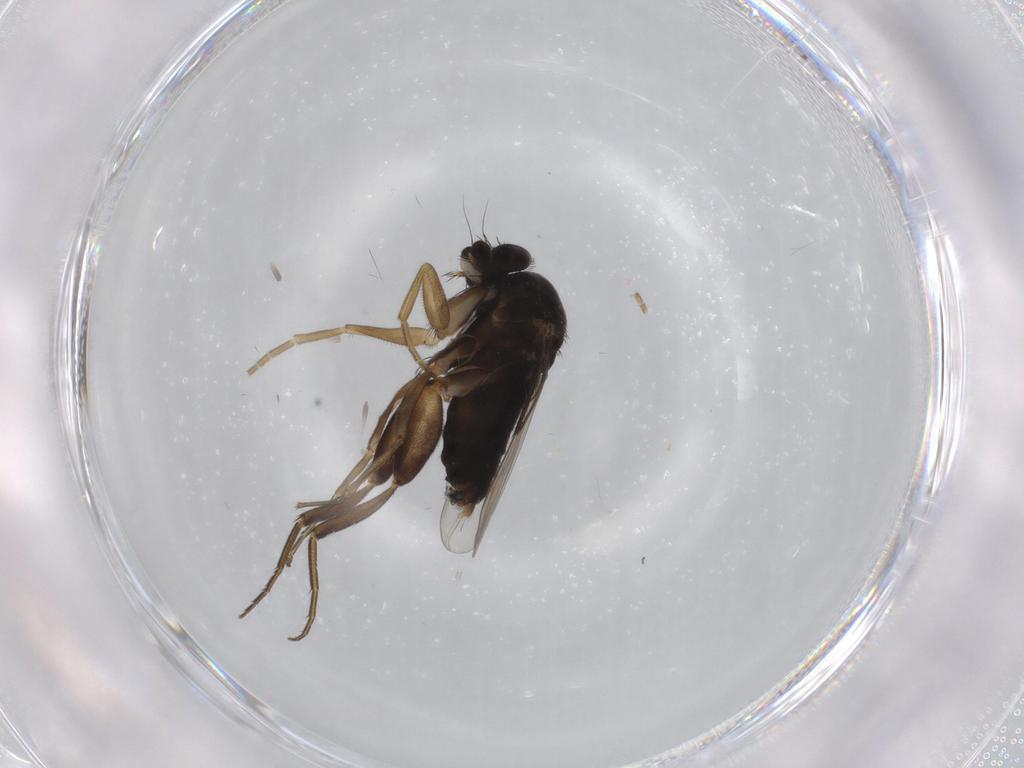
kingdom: Animalia
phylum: Arthropoda
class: Insecta
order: Diptera
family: Phoridae
